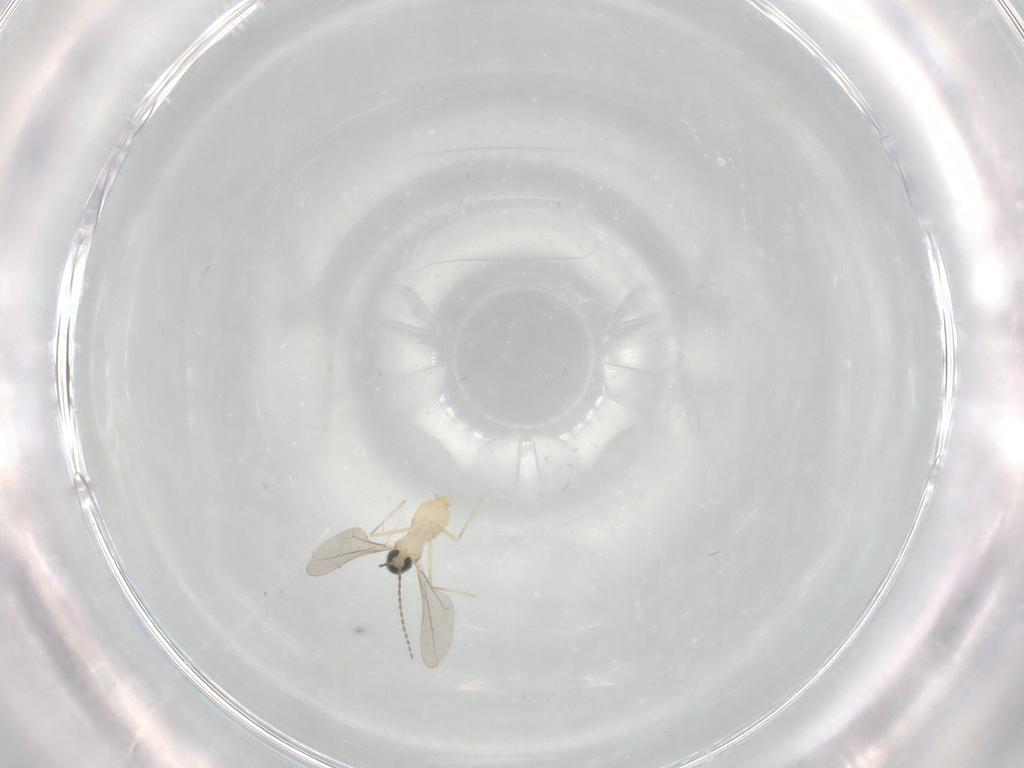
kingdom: Animalia
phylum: Arthropoda
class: Insecta
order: Diptera
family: Cecidomyiidae
